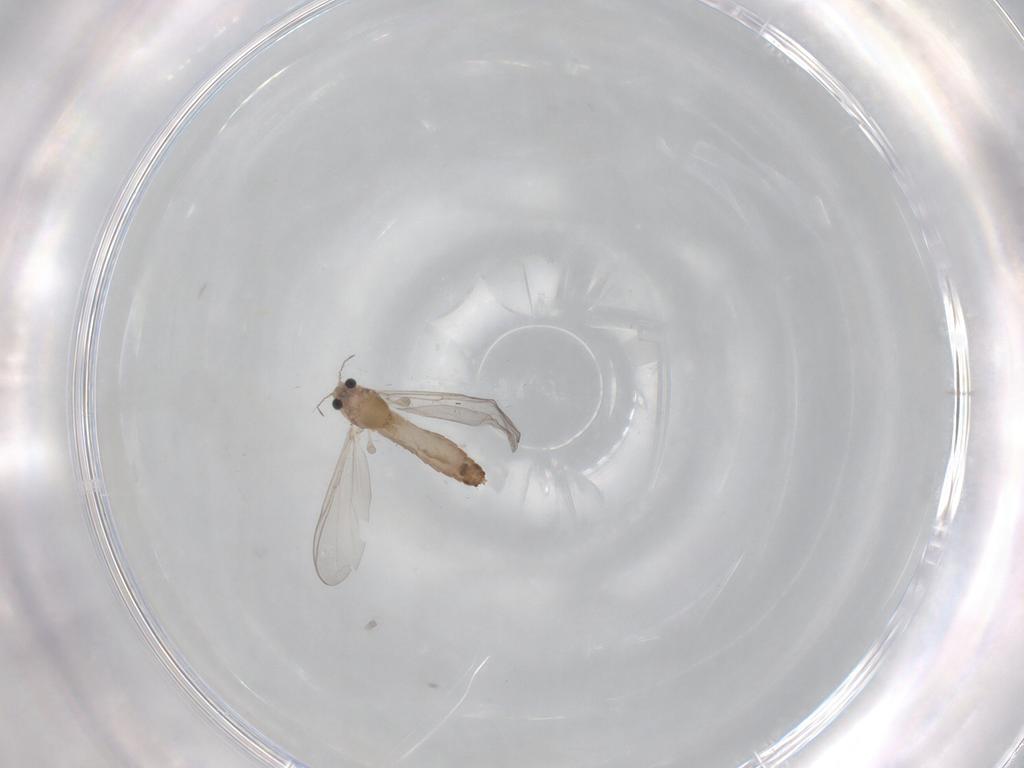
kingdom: Animalia
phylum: Arthropoda
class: Insecta
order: Diptera
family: Chironomidae
